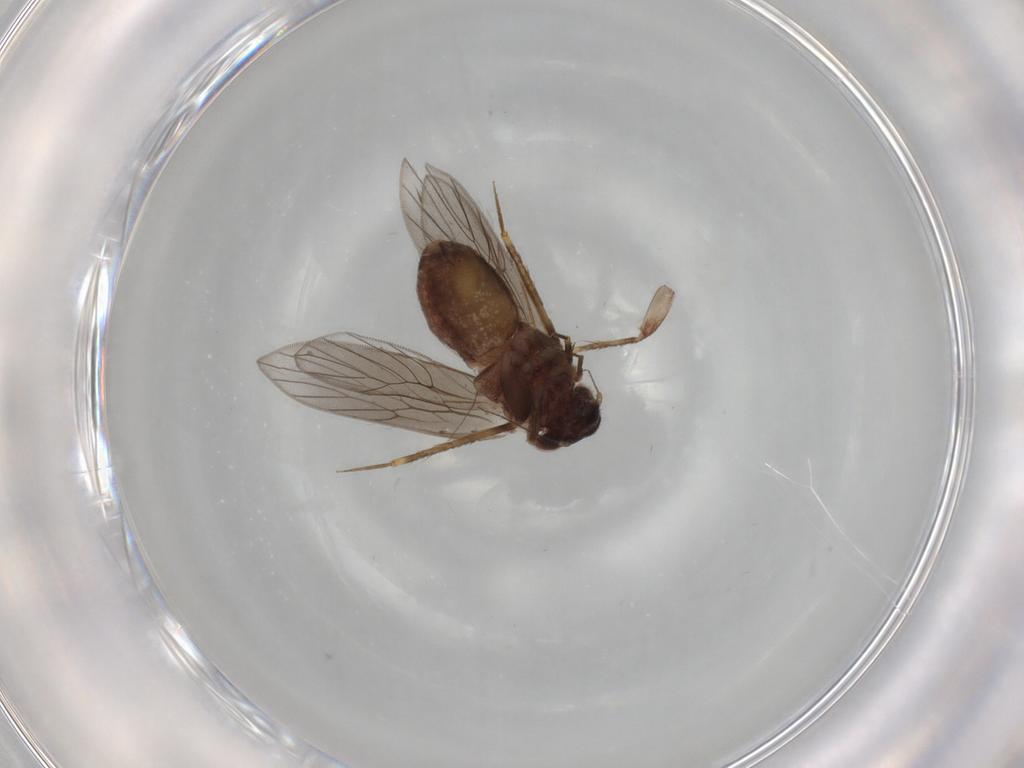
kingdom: Animalia
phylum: Arthropoda
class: Insecta
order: Psocodea
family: Lepidopsocidae
